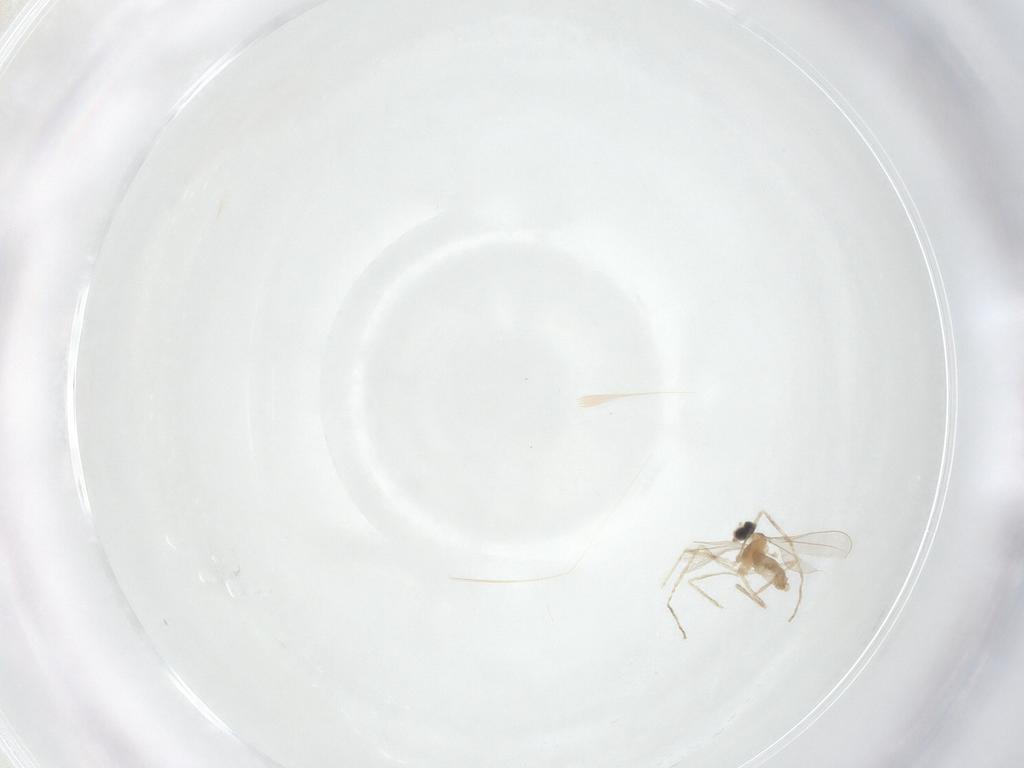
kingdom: Animalia
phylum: Arthropoda
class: Insecta
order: Diptera
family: Cecidomyiidae
